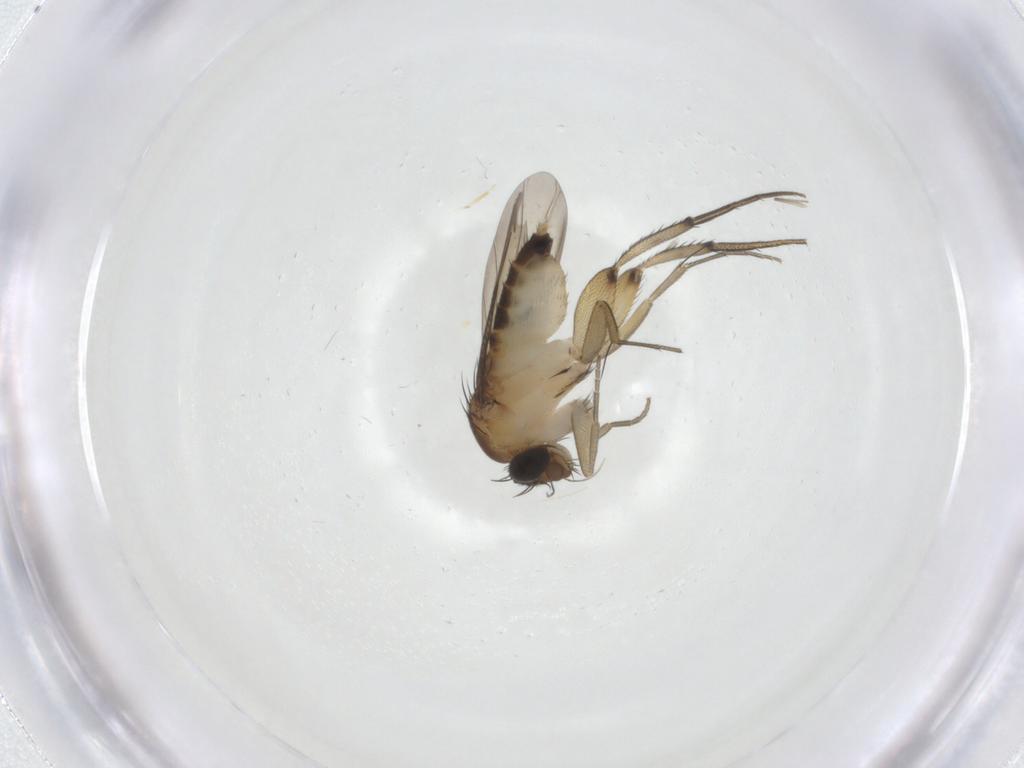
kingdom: Animalia
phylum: Arthropoda
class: Insecta
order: Diptera
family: Phoridae
